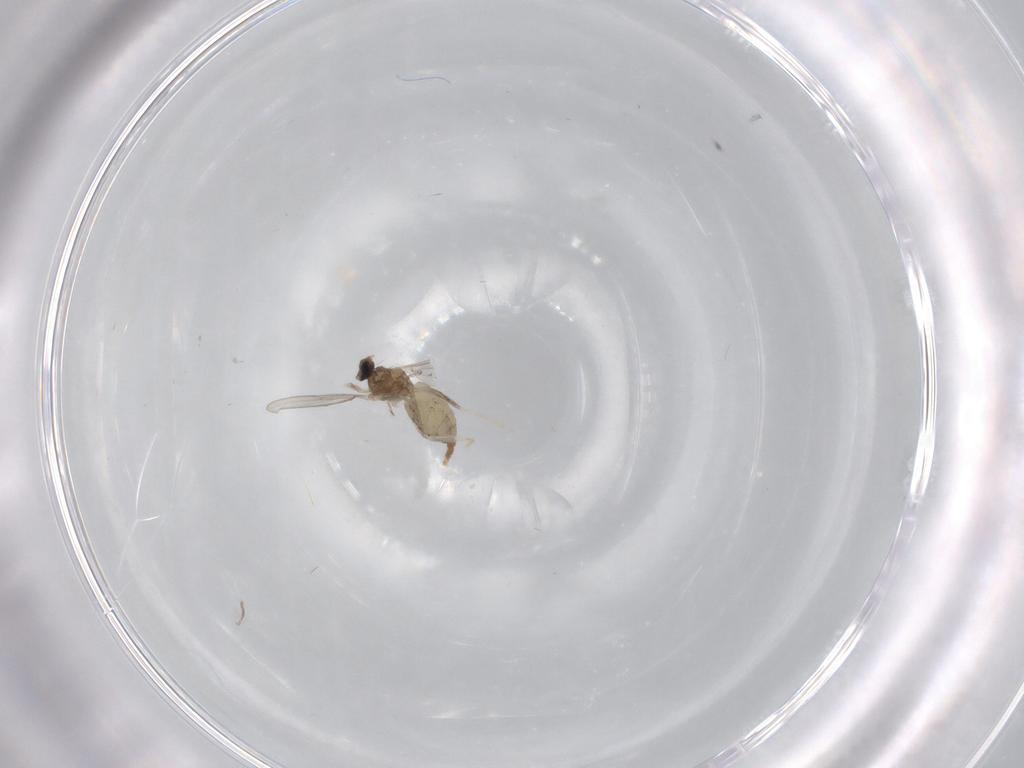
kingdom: Animalia
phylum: Arthropoda
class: Insecta
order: Diptera
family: Cecidomyiidae
